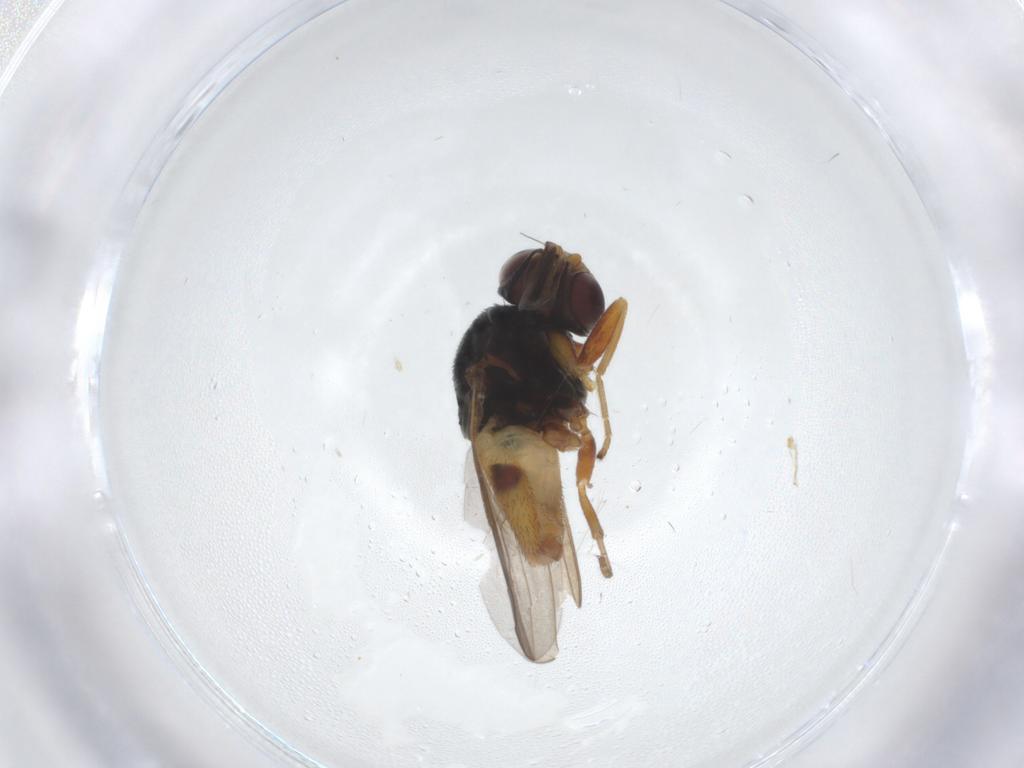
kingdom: Animalia
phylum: Arthropoda
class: Insecta
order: Diptera
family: Chloropidae
